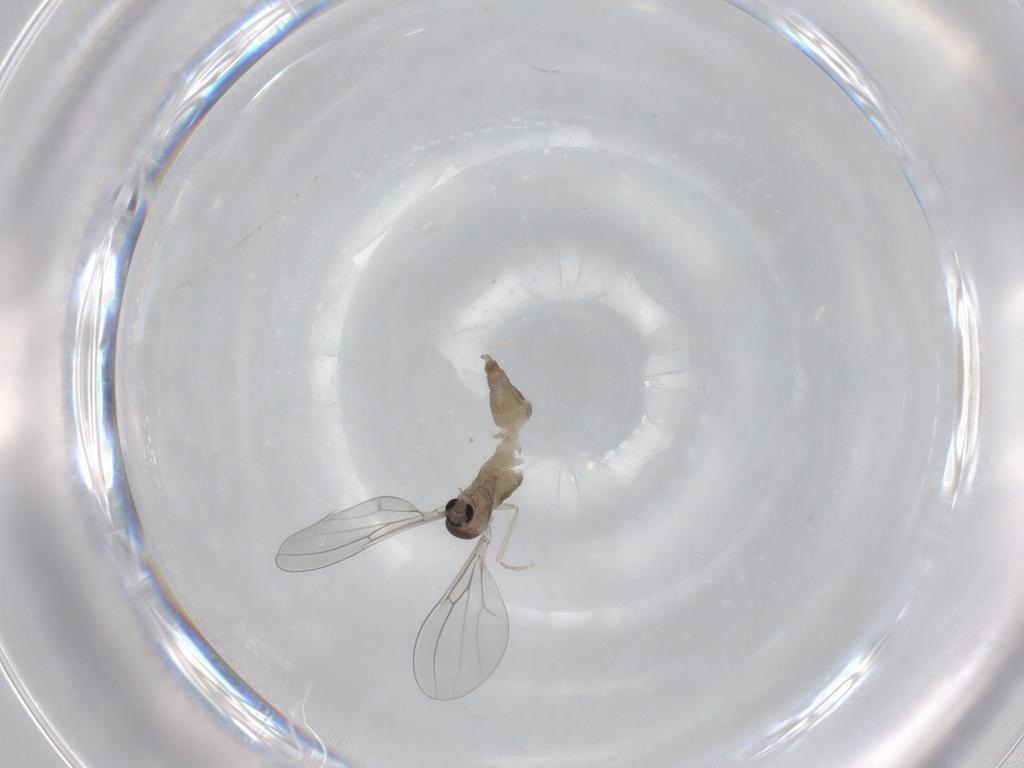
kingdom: Animalia
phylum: Arthropoda
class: Insecta
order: Diptera
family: Cecidomyiidae
